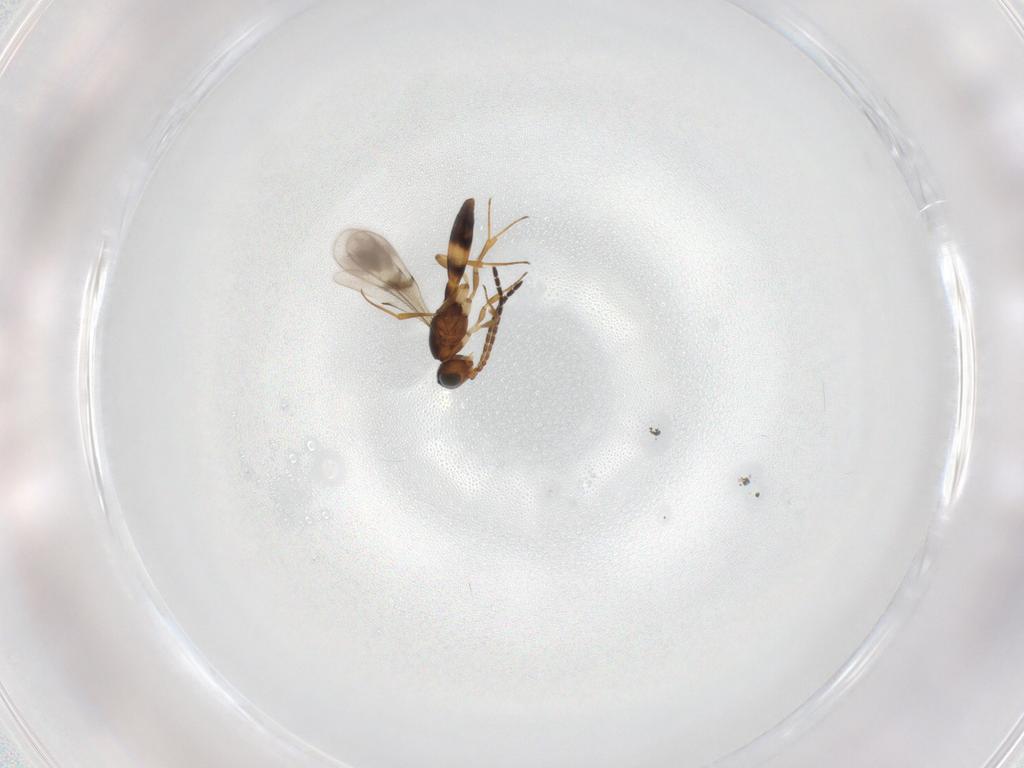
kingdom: Animalia
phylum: Arthropoda
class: Insecta
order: Hymenoptera
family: Scelionidae
